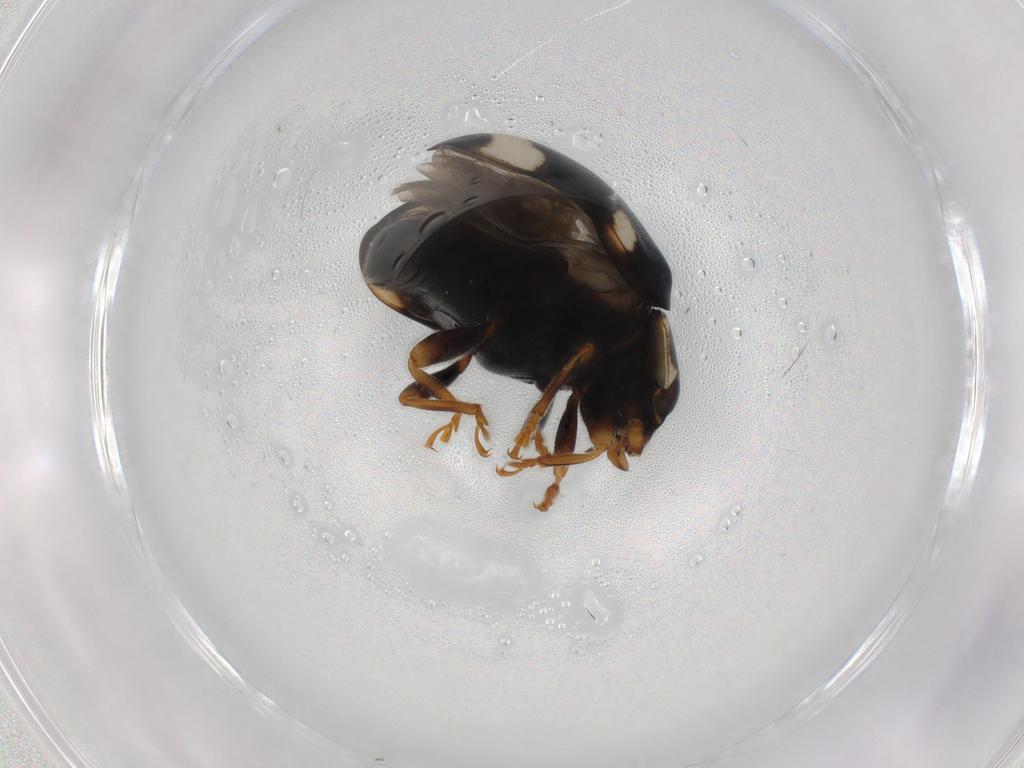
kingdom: Animalia
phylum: Arthropoda
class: Insecta
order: Coleoptera
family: Coccinellidae
